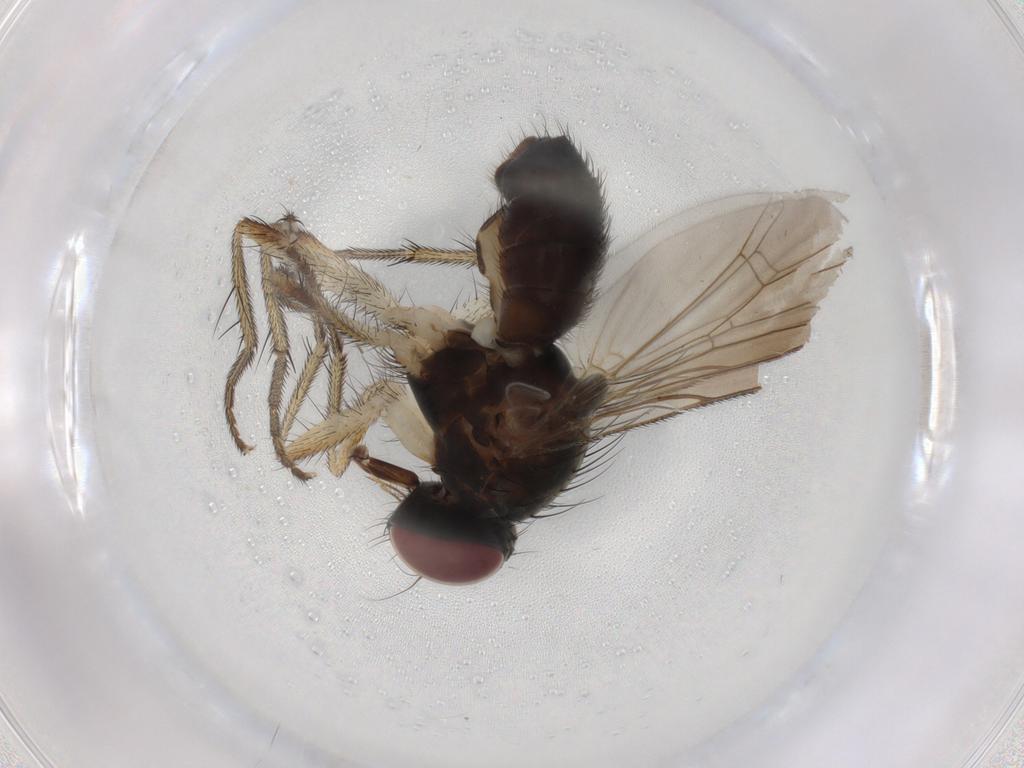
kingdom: Animalia
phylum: Arthropoda
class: Insecta
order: Diptera
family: Muscidae
